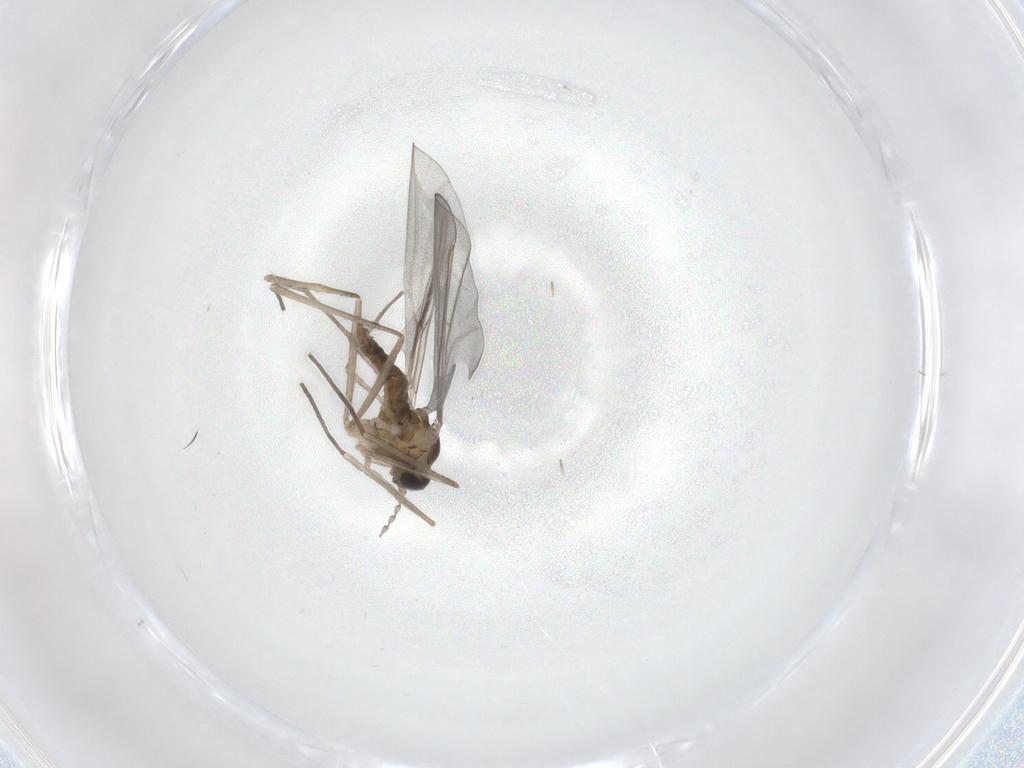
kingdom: Animalia
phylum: Arthropoda
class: Insecta
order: Diptera
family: Cecidomyiidae
